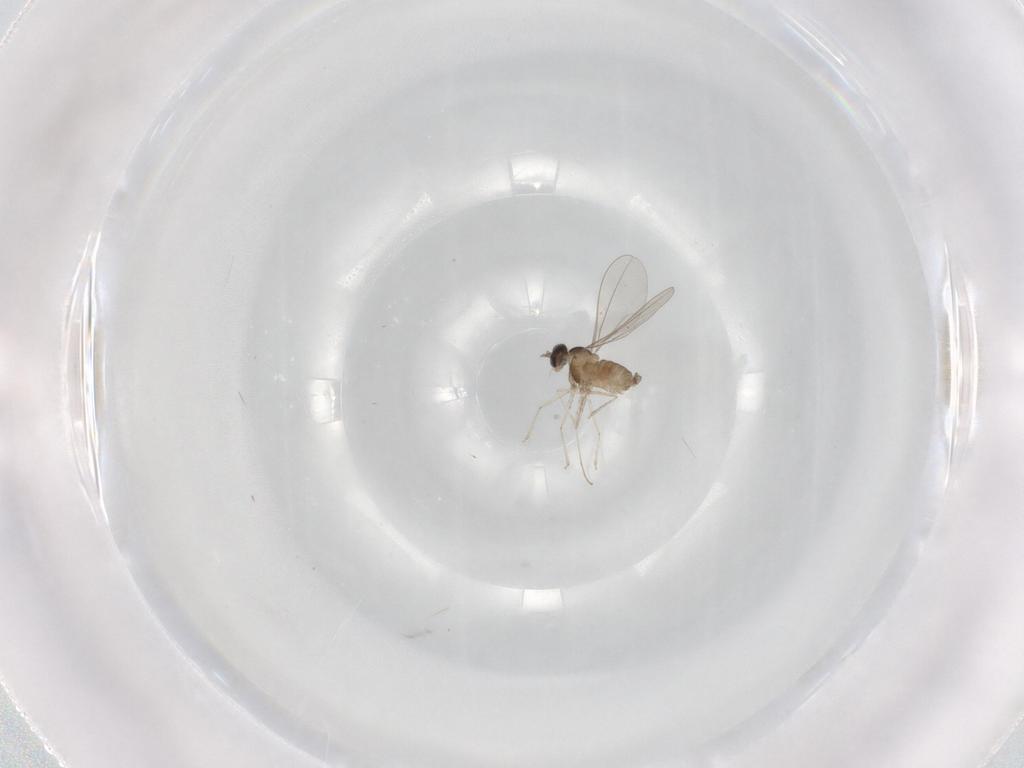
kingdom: Animalia
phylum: Arthropoda
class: Insecta
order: Diptera
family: Cecidomyiidae
